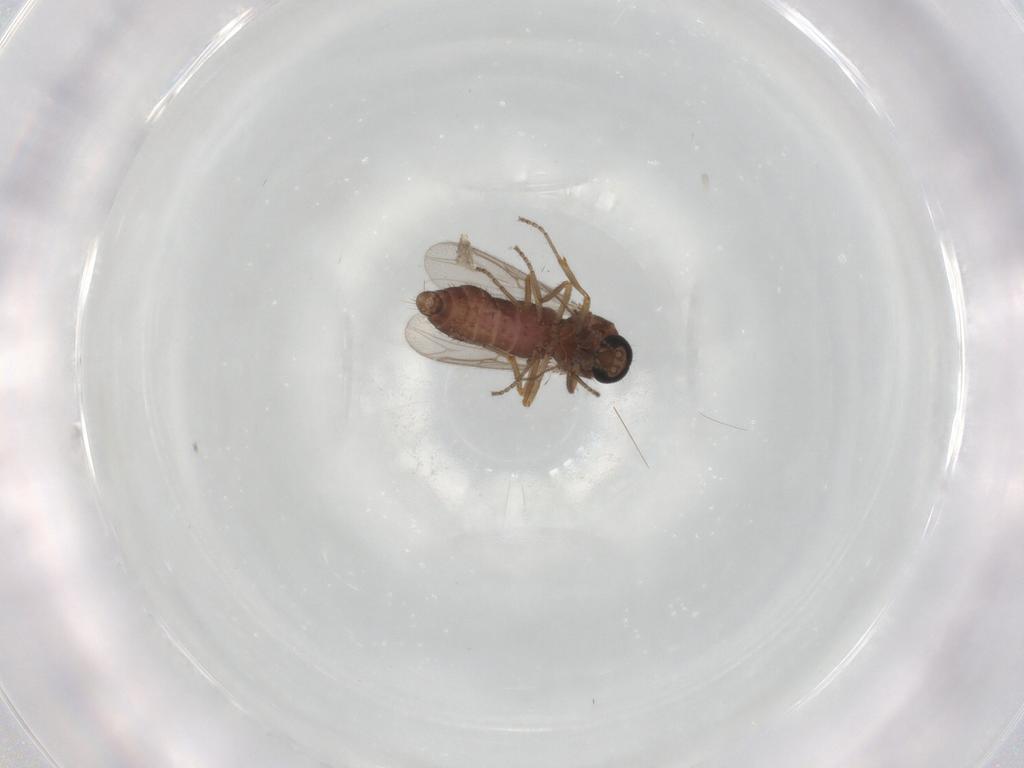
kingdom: Animalia
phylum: Arthropoda
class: Insecta
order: Diptera
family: Ceratopogonidae
